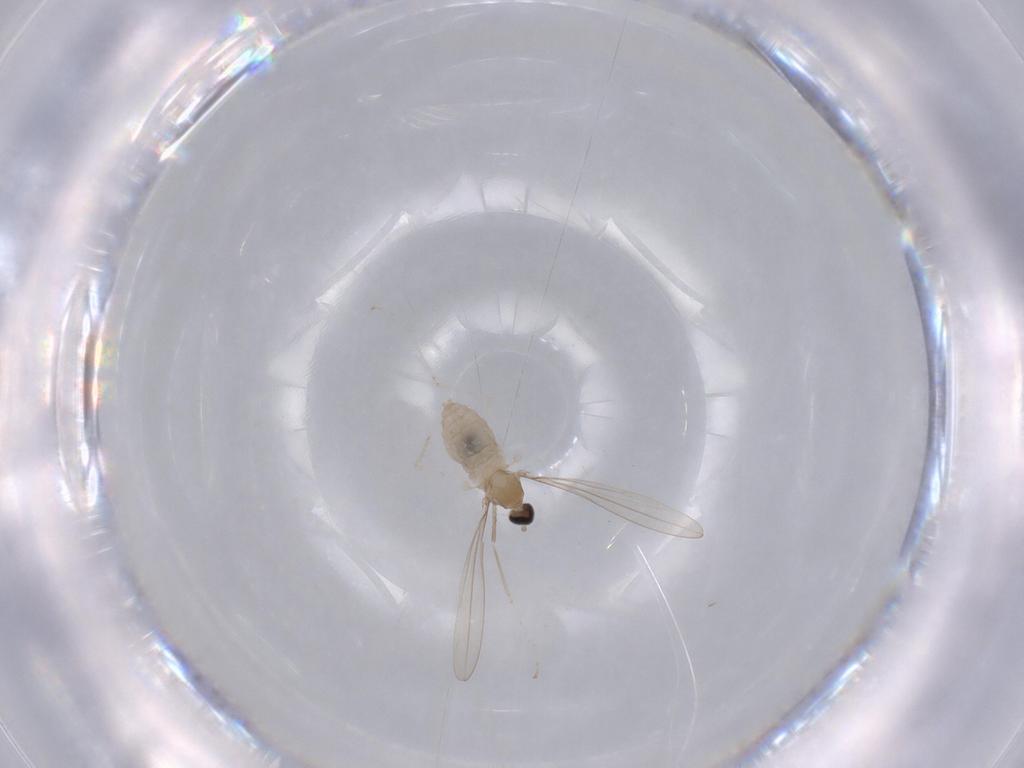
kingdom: Animalia
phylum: Arthropoda
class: Insecta
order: Diptera
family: Cecidomyiidae
